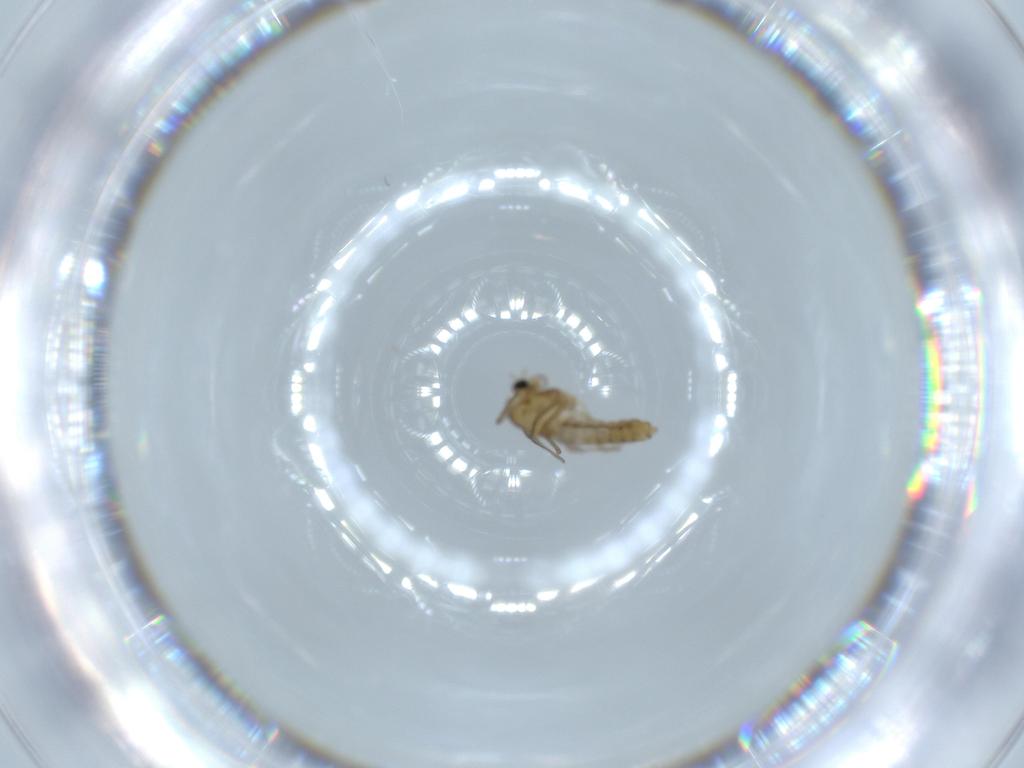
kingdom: Animalia
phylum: Arthropoda
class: Insecta
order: Diptera
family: Chironomidae
